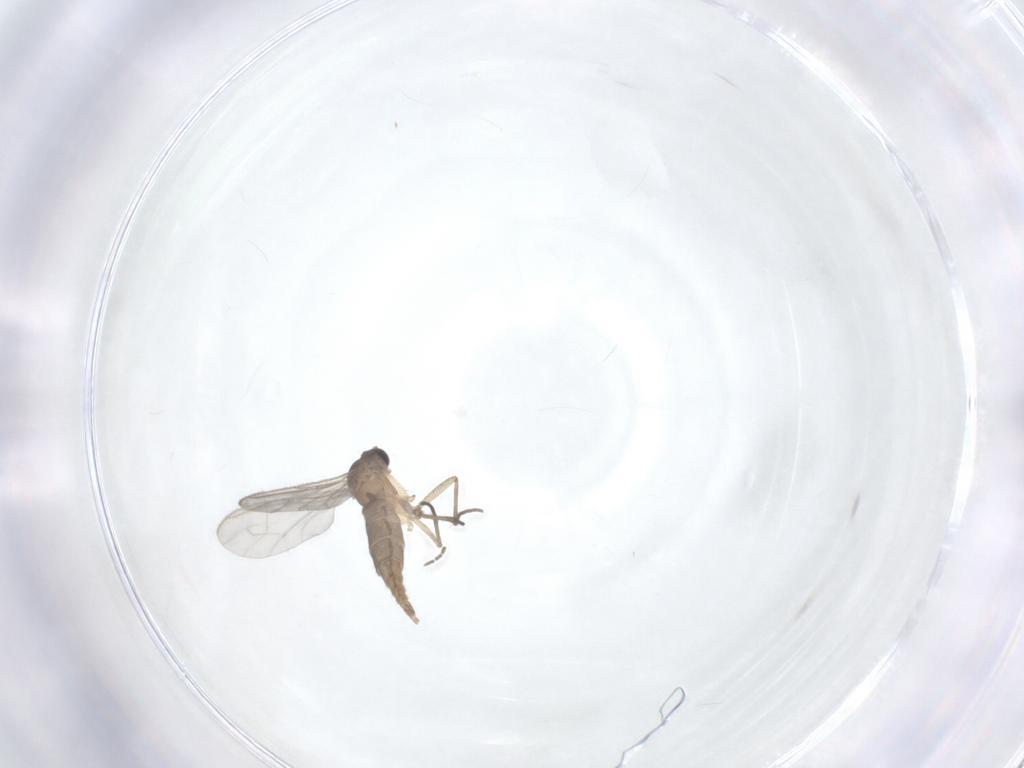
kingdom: Animalia
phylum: Arthropoda
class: Insecta
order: Diptera
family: Sciaridae
